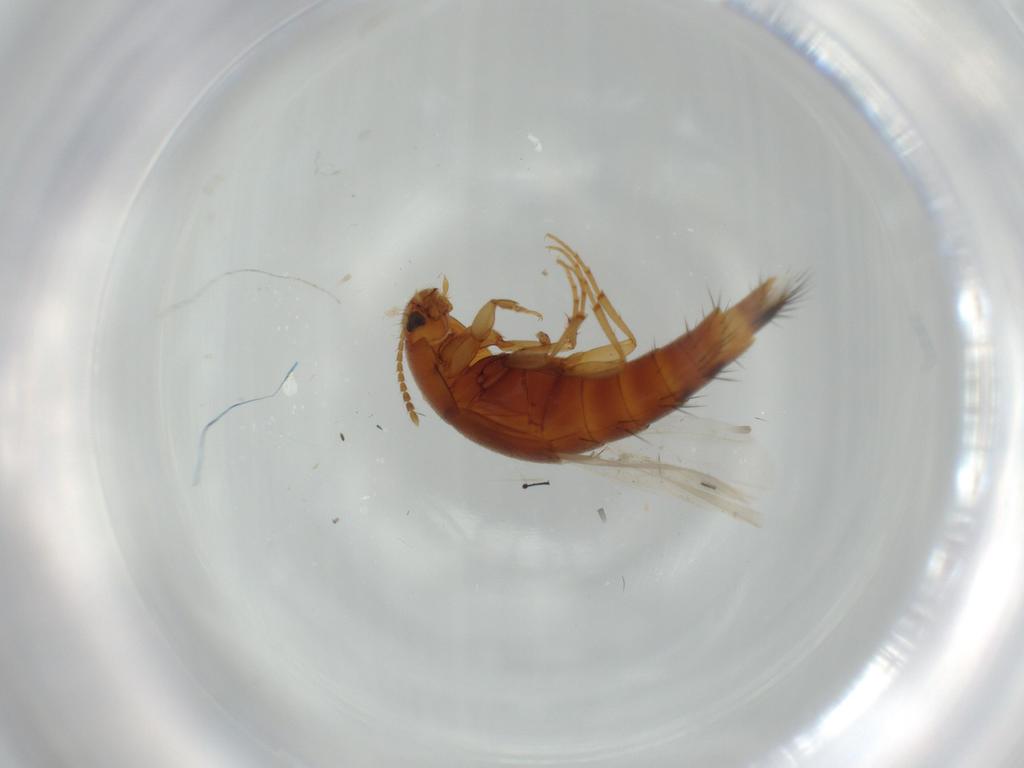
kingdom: Animalia
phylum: Arthropoda
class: Insecta
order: Coleoptera
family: Staphylinidae
